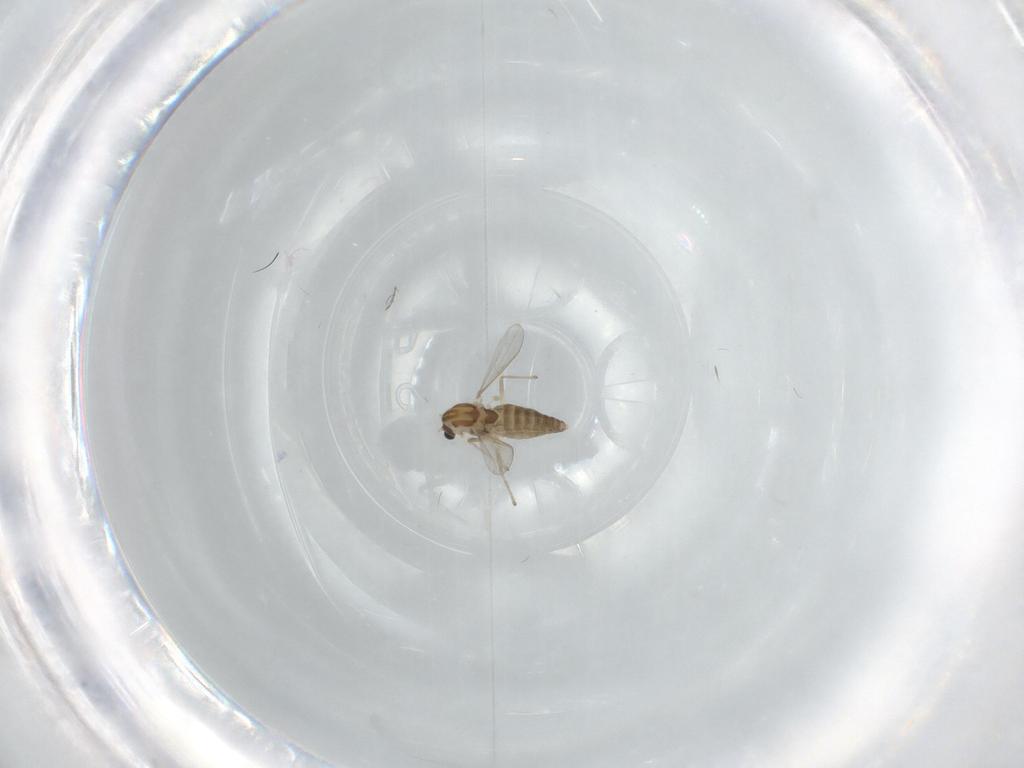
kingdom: Animalia
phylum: Arthropoda
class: Insecta
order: Diptera
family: Chironomidae
